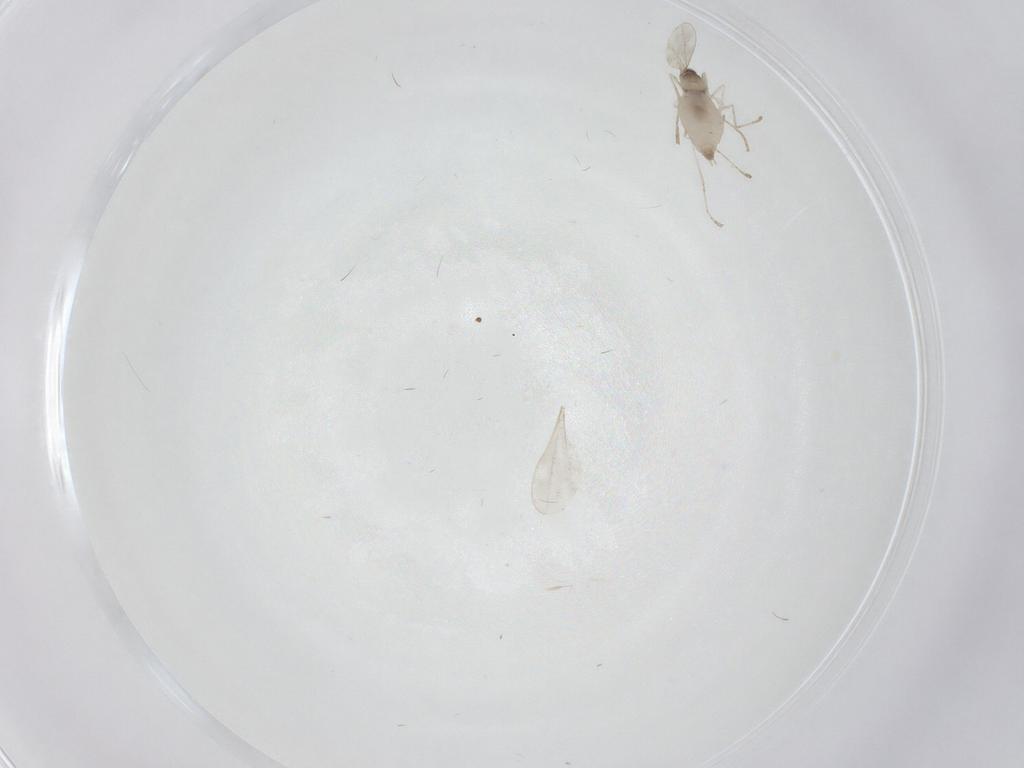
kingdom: Animalia
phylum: Arthropoda
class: Insecta
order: Diptera
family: Cecidomyiidae
